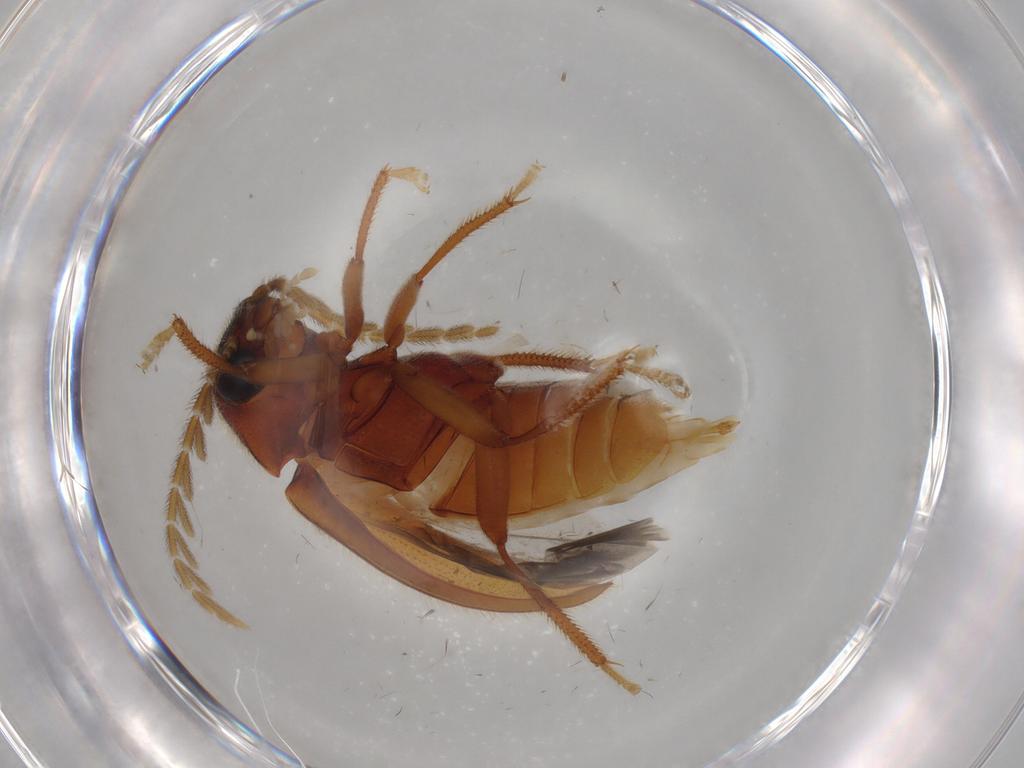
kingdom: Animalia
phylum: Arthropoda
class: Insecta
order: Coleoptera
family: Ptilodactylidae
